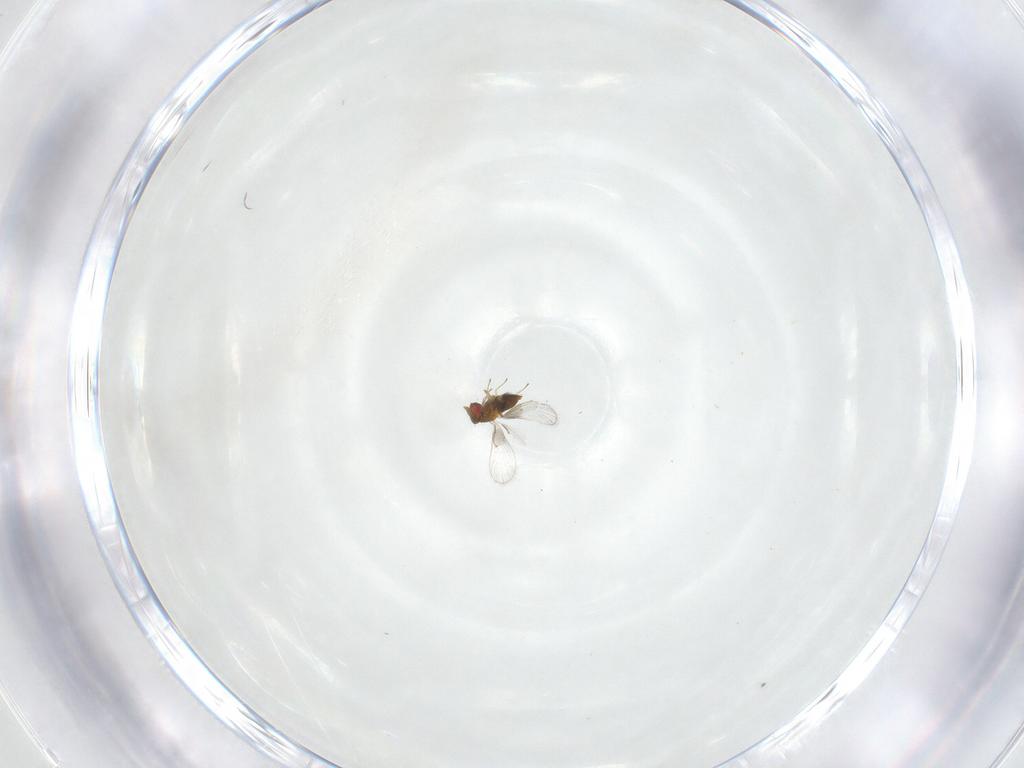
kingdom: Animalia
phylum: Arthropoda
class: Insecta
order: Hymenoptera
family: Trichogrammatidae
